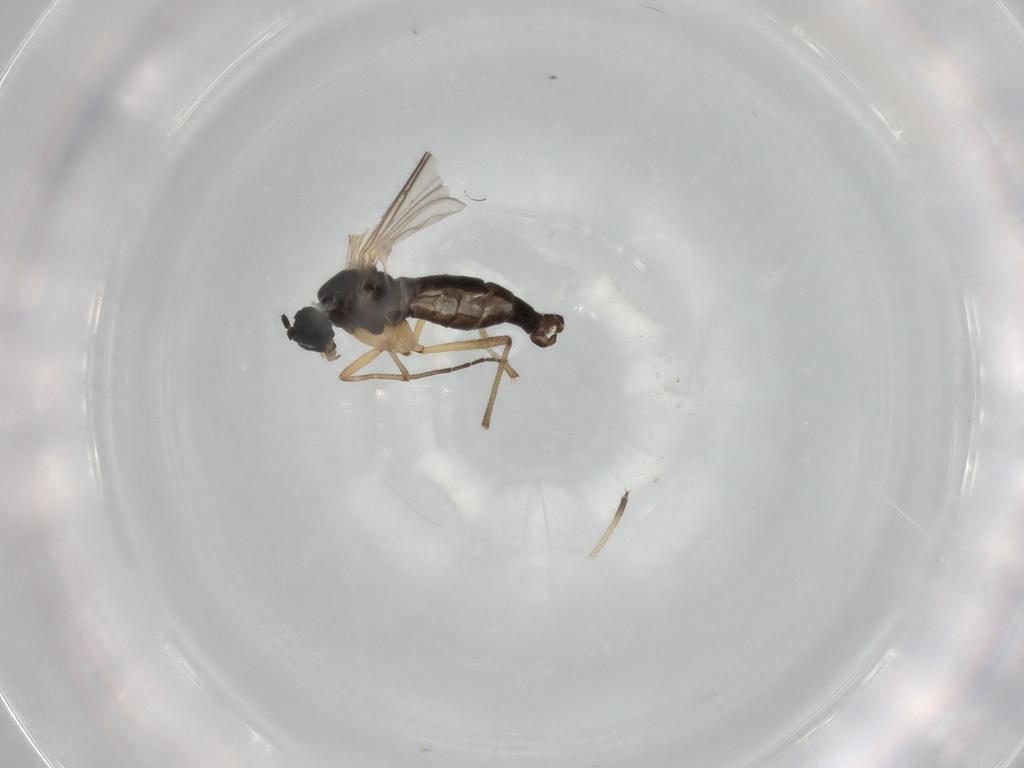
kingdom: Animalia
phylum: Arthropoda
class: Insecta
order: Diptera
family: Sciaridae
